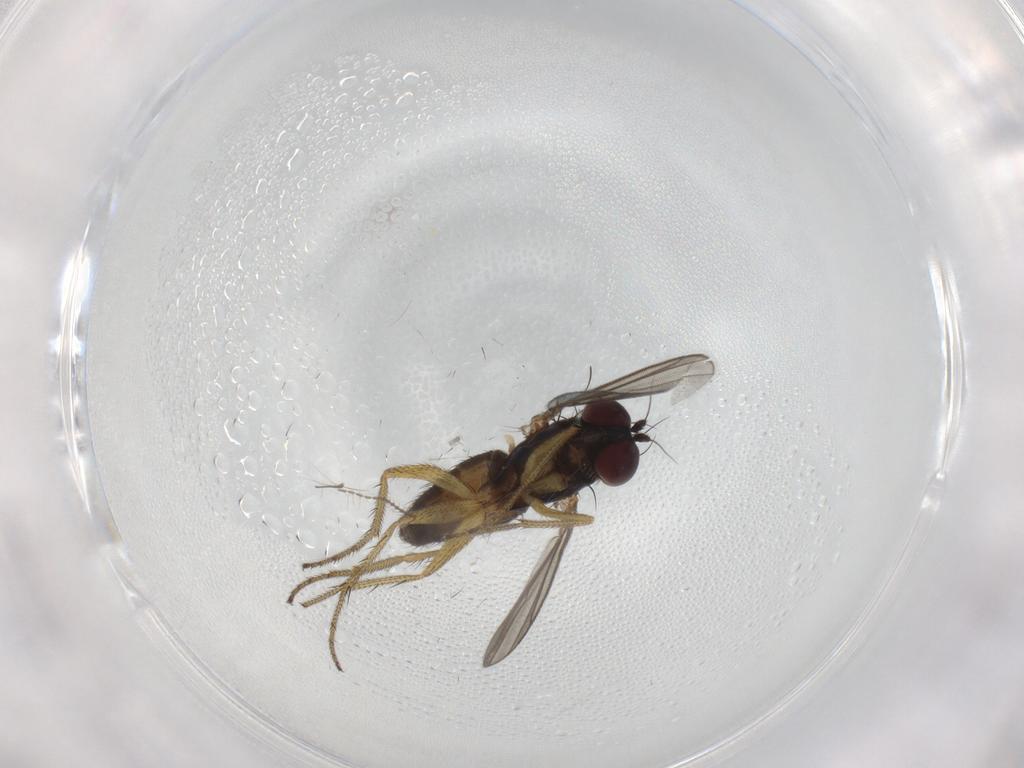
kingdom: Animalia
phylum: Arthropoda
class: Insecta
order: Diptera
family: Dolichopodidae
